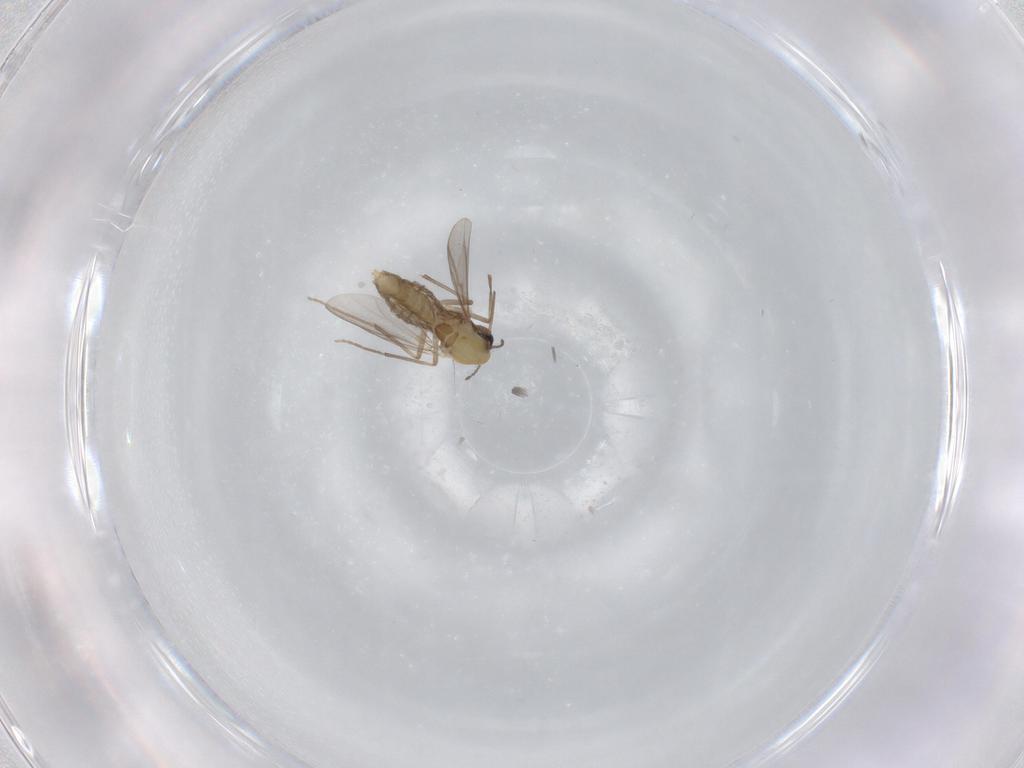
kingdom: Animalia
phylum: Arthropoda
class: Insecta
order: Diptera
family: Chironomidae
